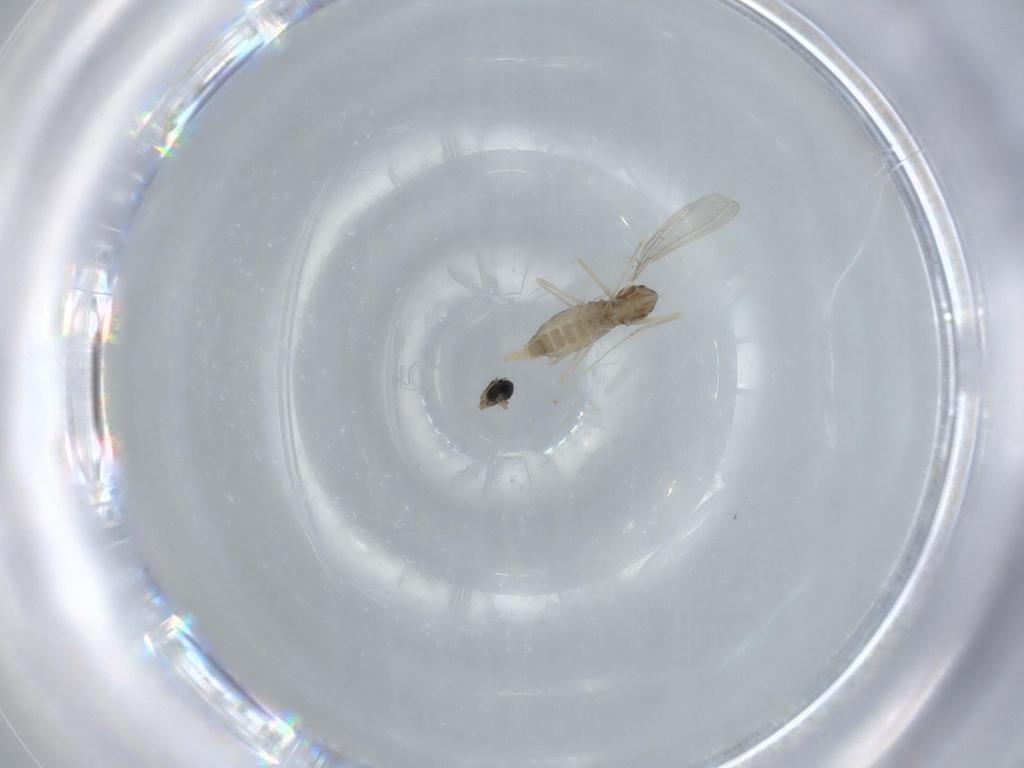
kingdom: Animalia
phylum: Arthropoda
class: Insecta
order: Diptera
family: Cecidomyiidae
